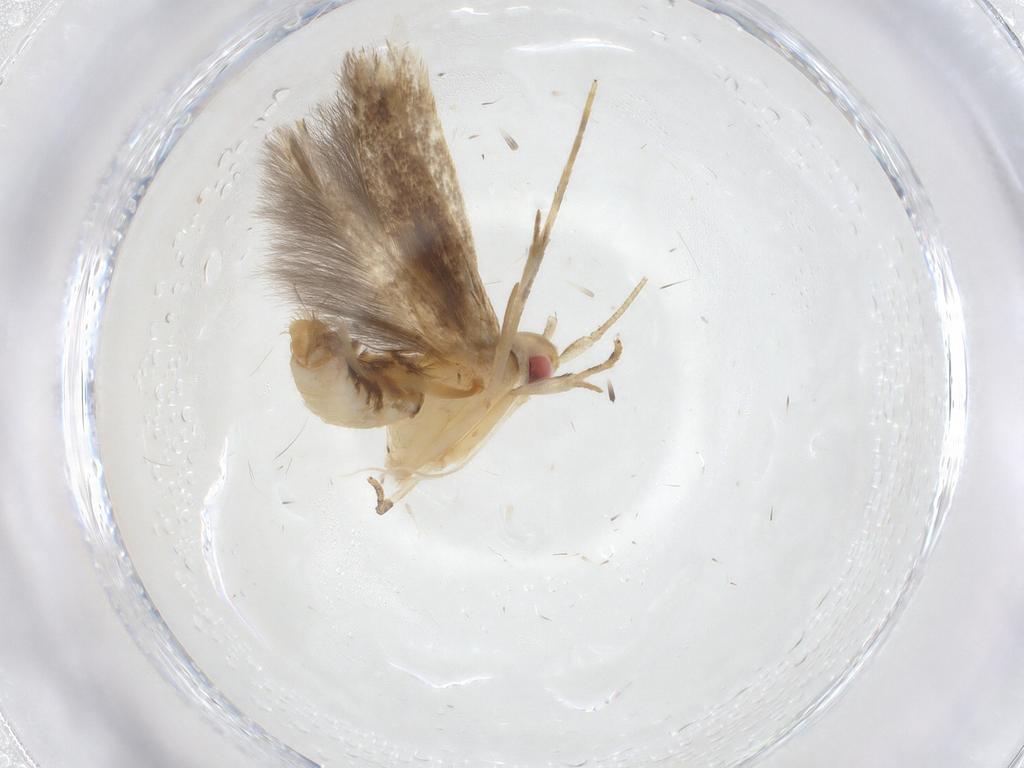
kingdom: Animalia
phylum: Arthropoda
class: Insecta
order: Lepidoptera
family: Cosmopterigidae
